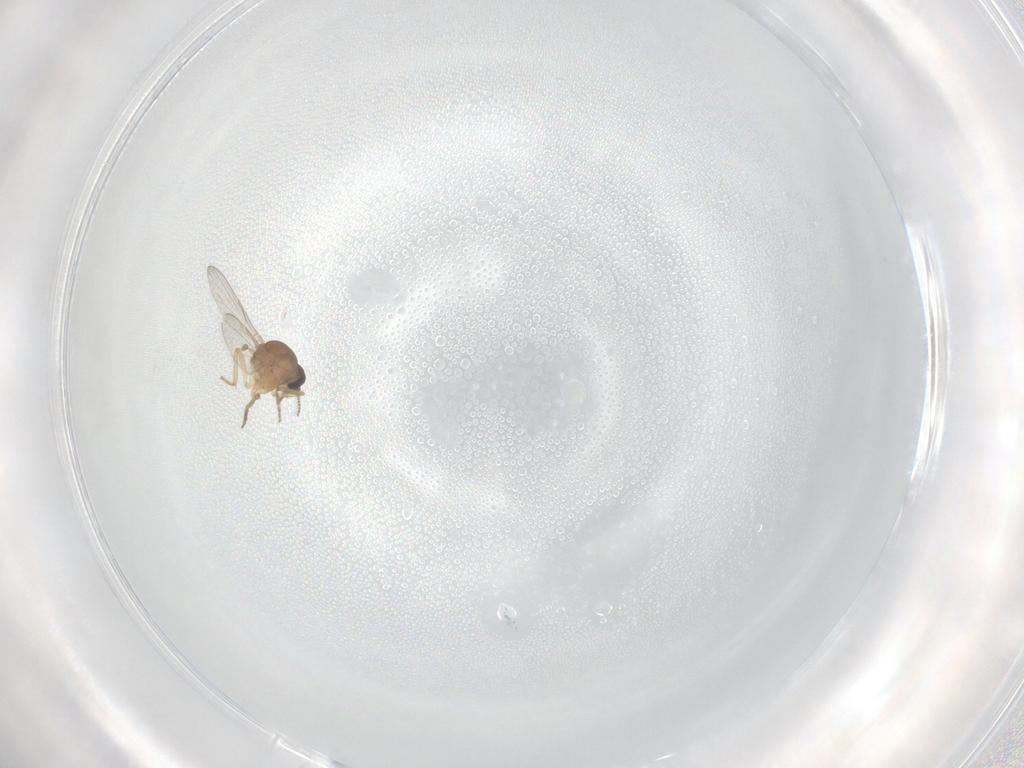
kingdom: Animalia
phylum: Arthropoda
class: Insecta
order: Diptera
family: Ceratopogonidae
